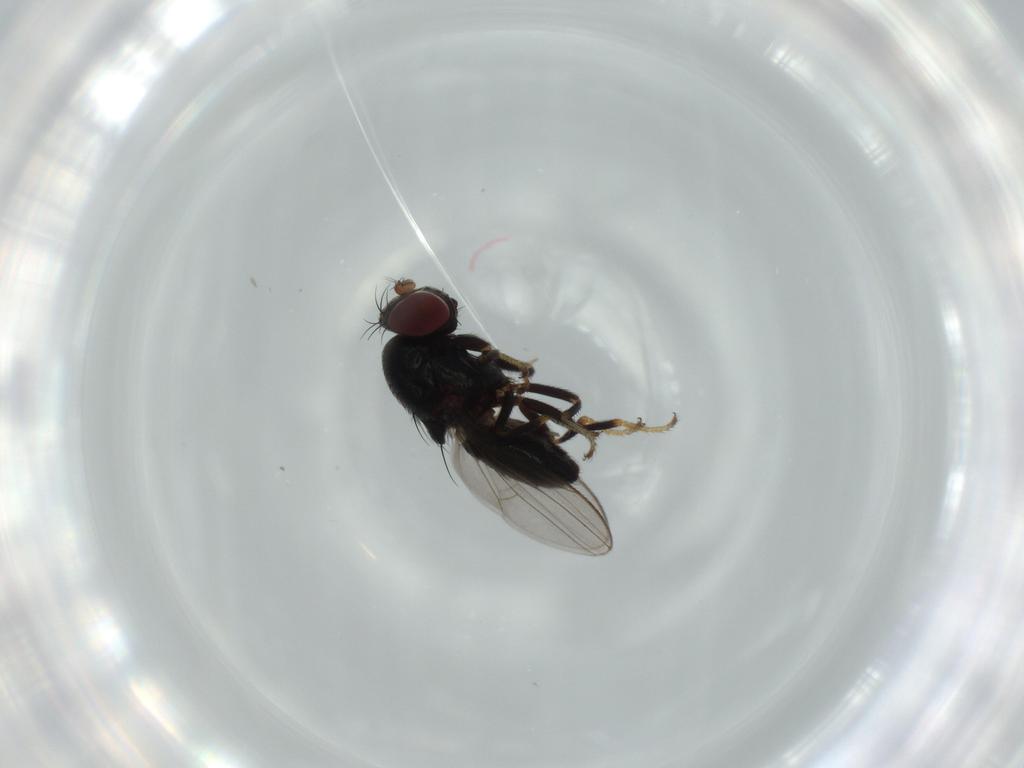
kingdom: Animalia
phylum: Arthropoda
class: Insecta
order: Diptera
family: Ephydridae
